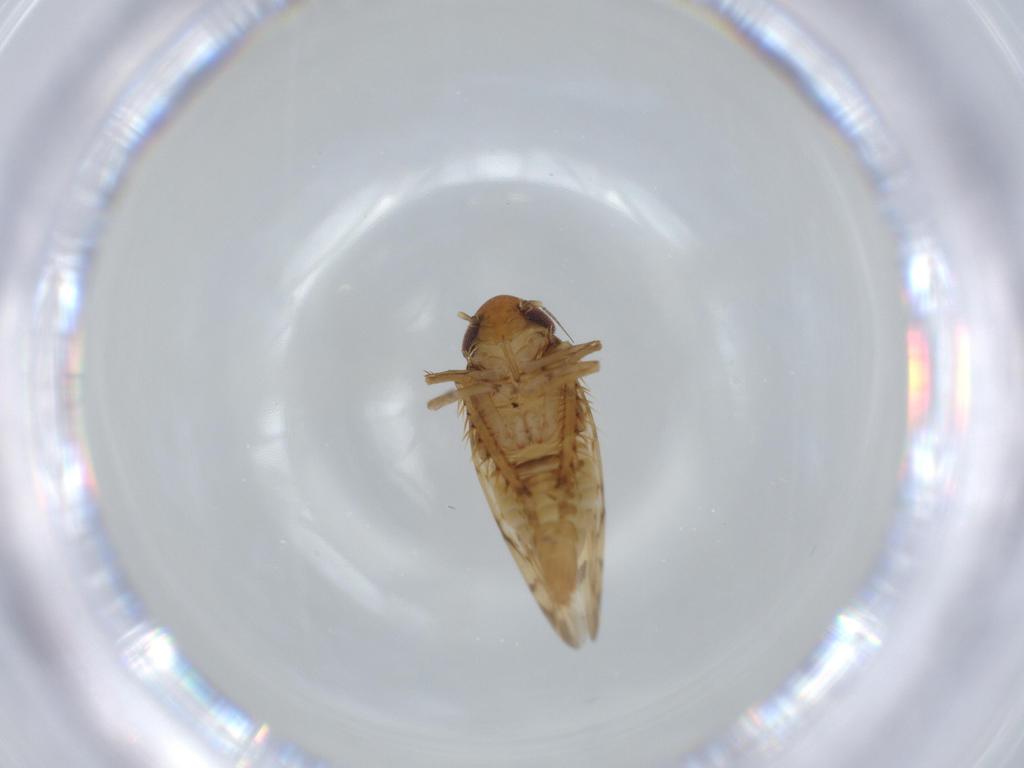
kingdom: Animalia
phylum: Arthropoda
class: Insecta
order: Hemiptera
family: Cicadellidae
